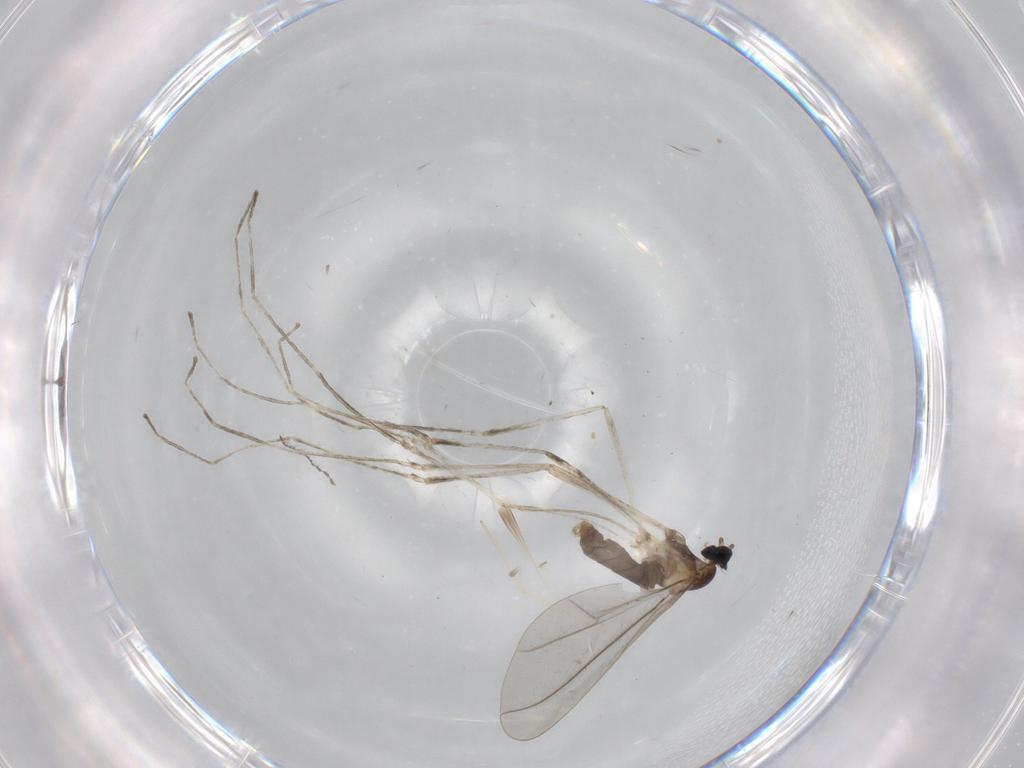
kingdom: Animalia
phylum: Arthropoda
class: Insecta
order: Diptera
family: Cecidomyiidae
